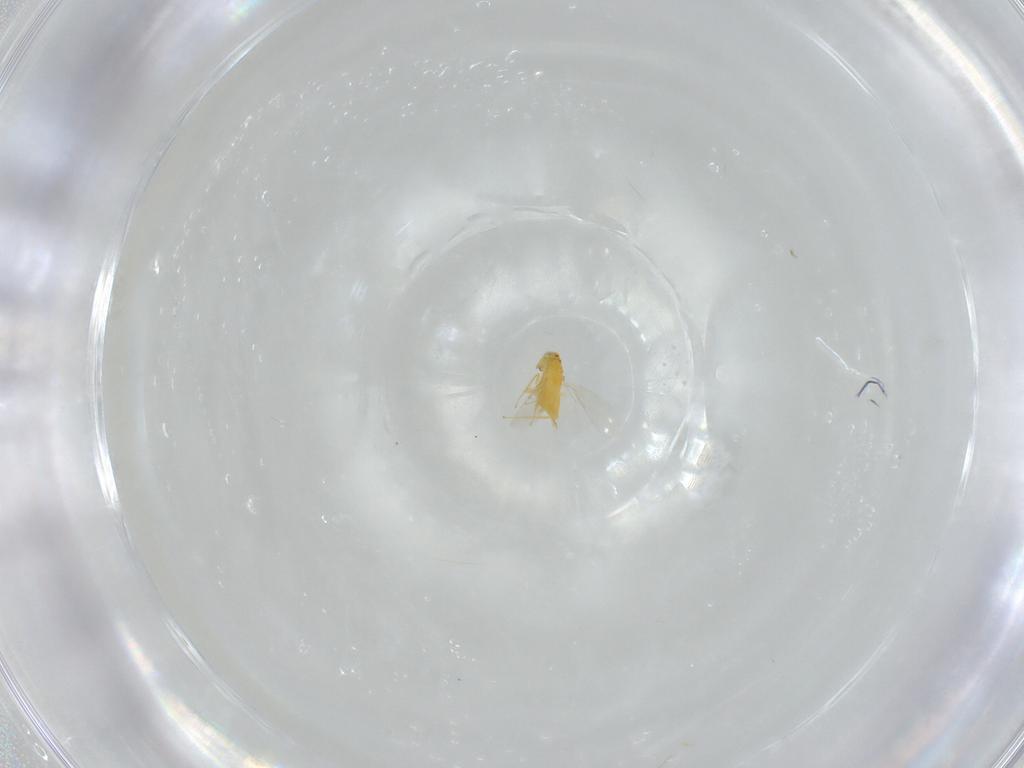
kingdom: Animalia
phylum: Arthropoda
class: Insecta
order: Hymenoptera
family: Aphelinidae
